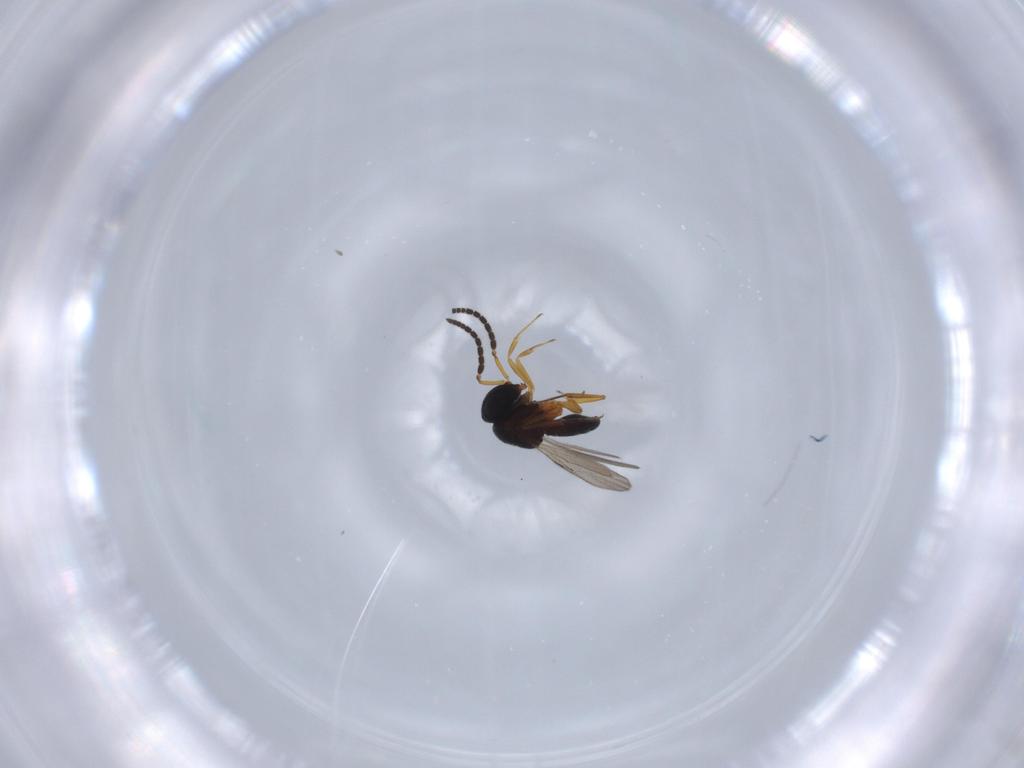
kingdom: Animalia
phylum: Arthropoda
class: Insecta
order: Coleoptera
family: Curculionidae
